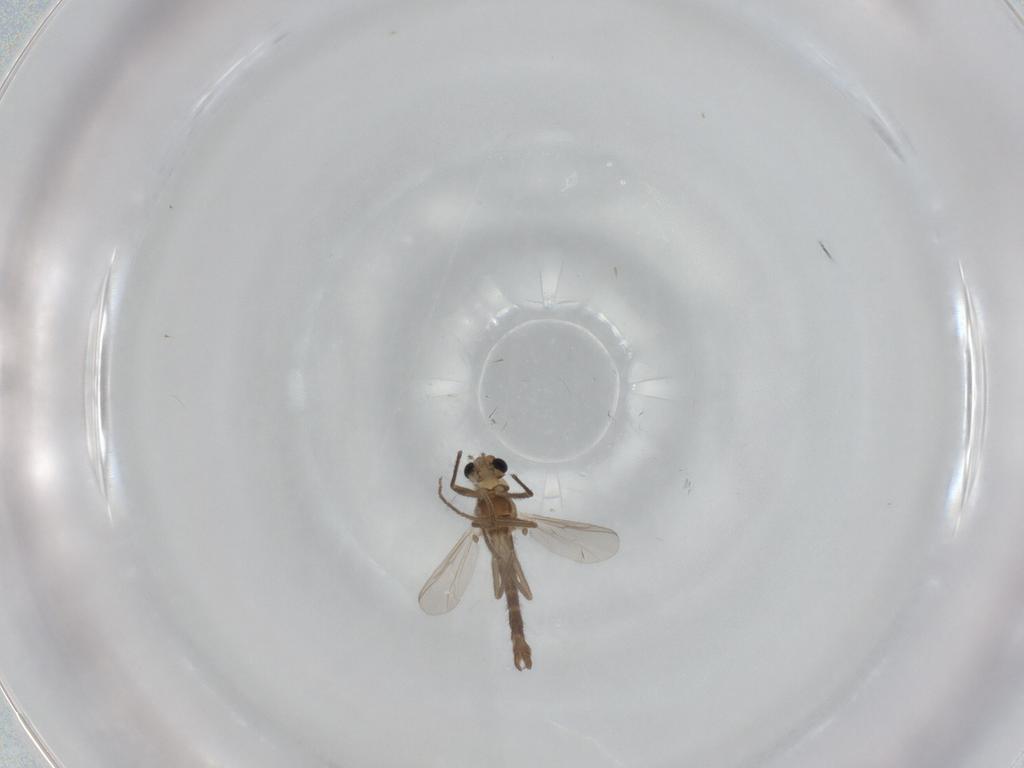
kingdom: Animalia
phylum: Arthropoda
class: Insecta
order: Diptera
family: Chironomidae
